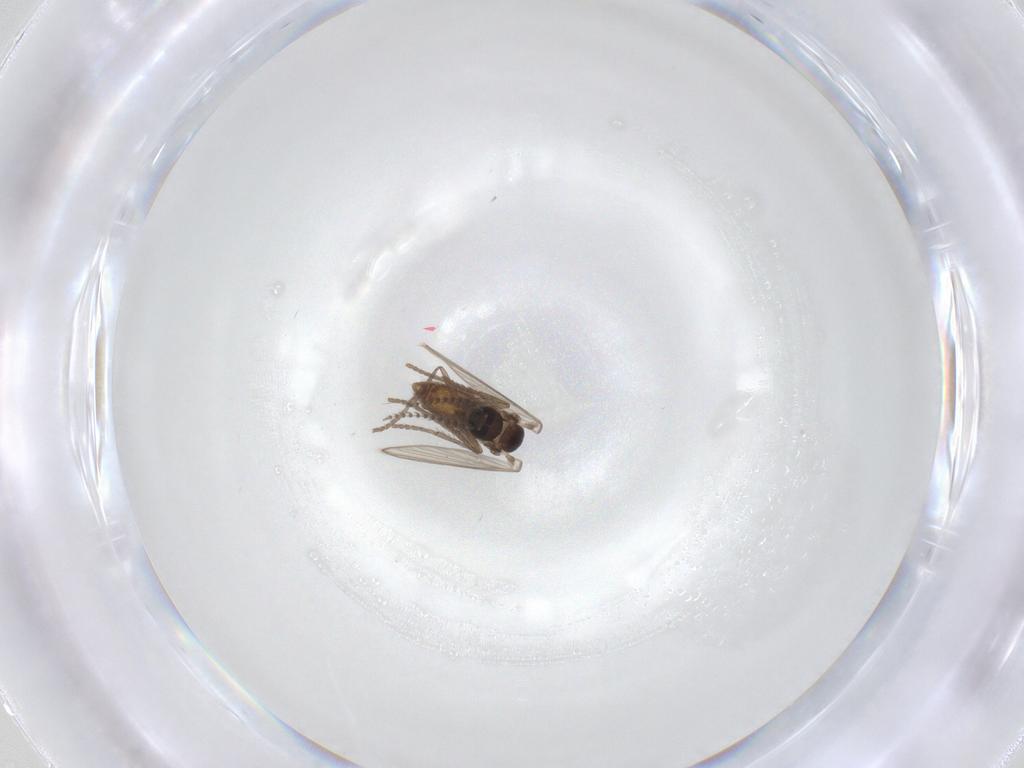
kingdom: Animalia
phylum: Arthropoda
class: Insecta
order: Diptera
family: Psychodidae
